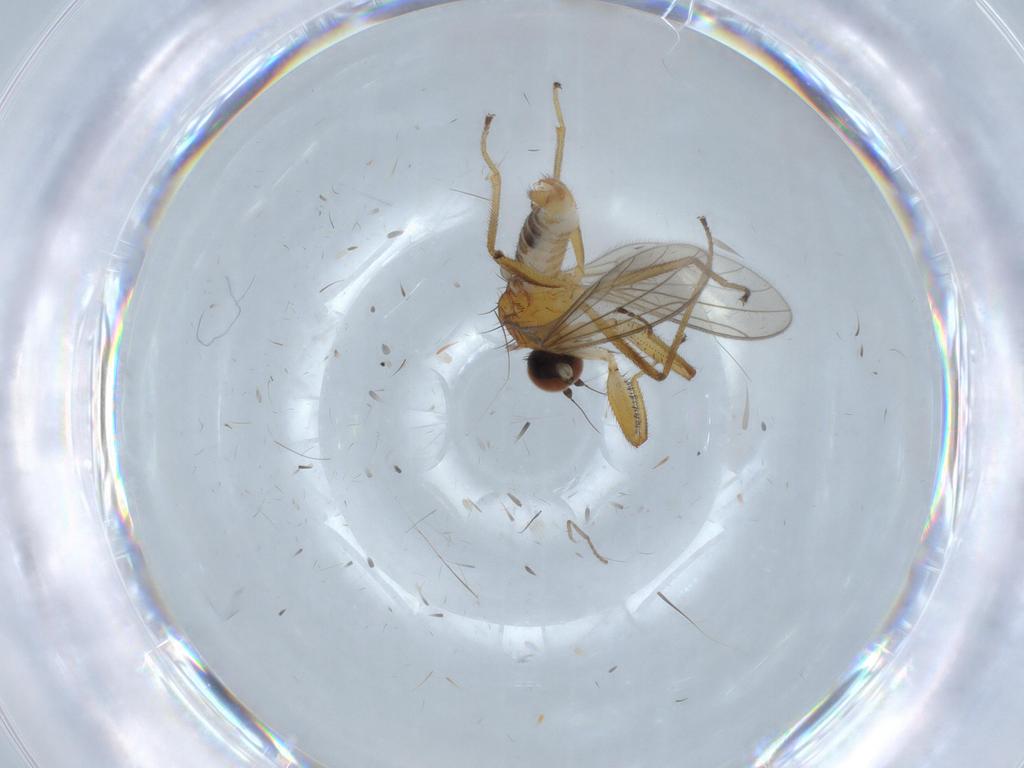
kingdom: Animalia
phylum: Arthropoda
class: Insecta
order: Diptera
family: Empididae
